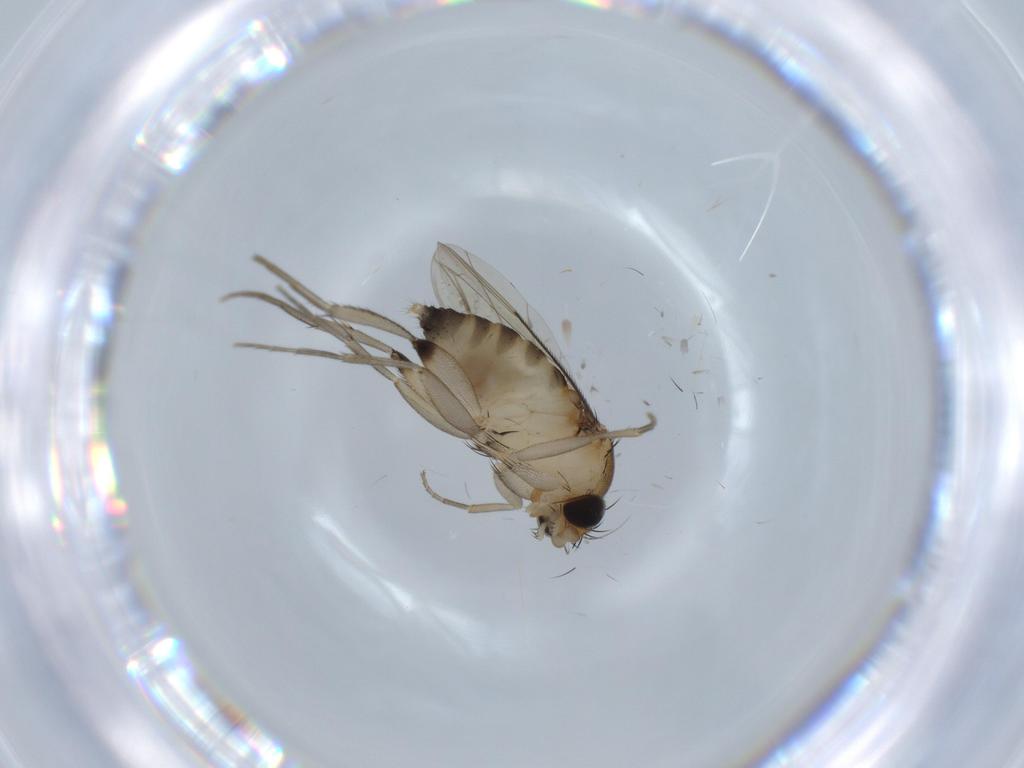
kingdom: Animalia
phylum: Arthropoda
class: Insecta
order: Diptera
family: Phoridae
